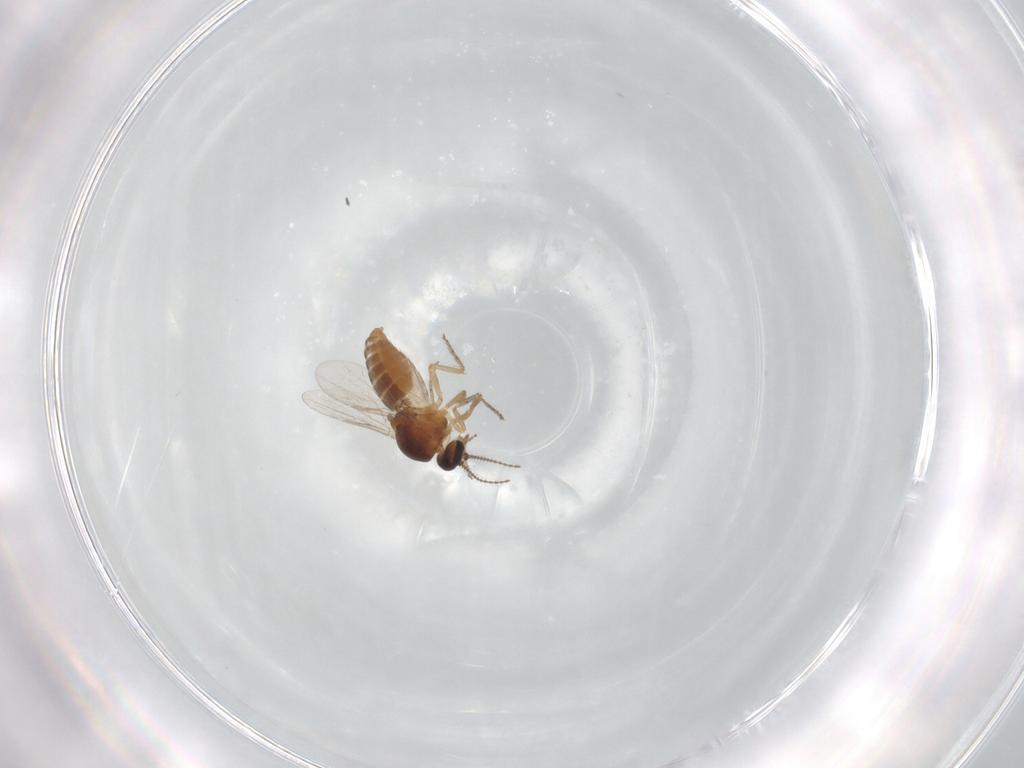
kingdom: Animalia
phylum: Arthropoda
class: Insecta
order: Diptera
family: Ceratopogonidae
